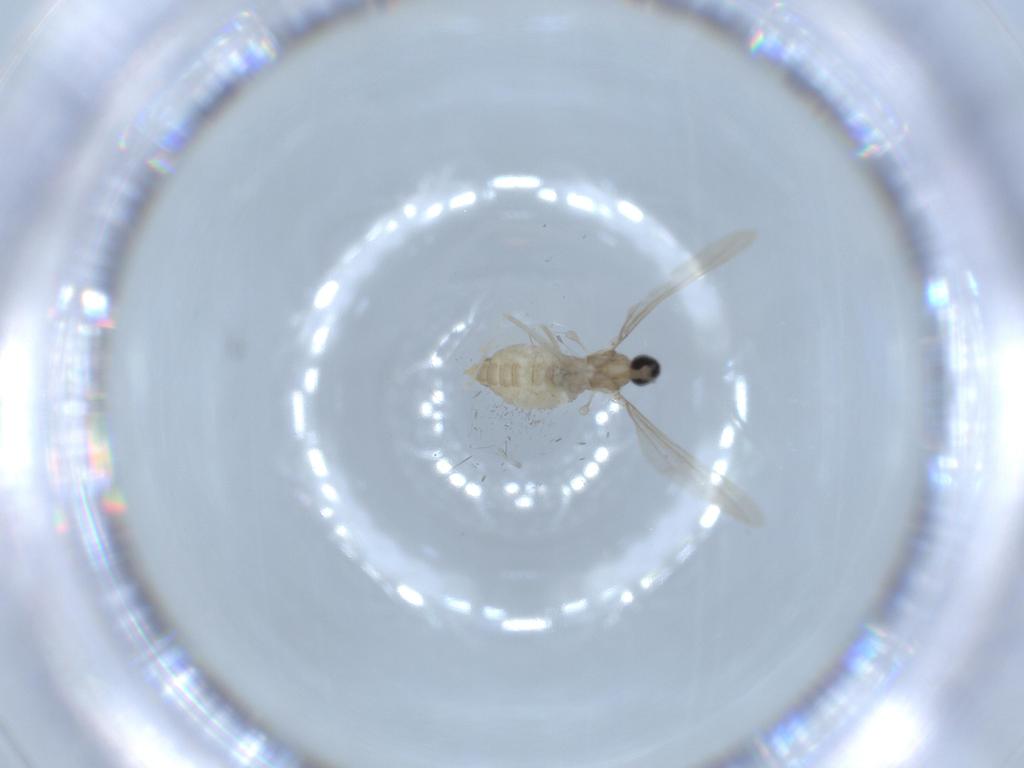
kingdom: Animalia
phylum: Arthropoda
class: Insecta
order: Diptera
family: Cecidomyiidae
